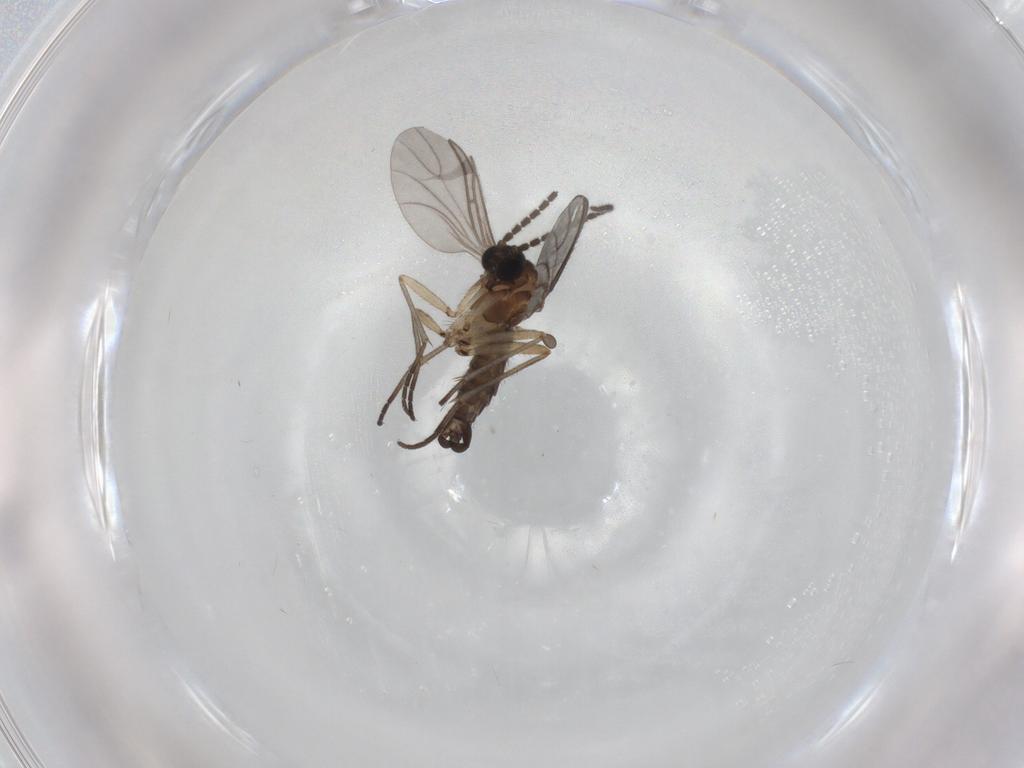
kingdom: Animalia
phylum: Arthropoda
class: Insecta
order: Diptera
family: Sciaridae
